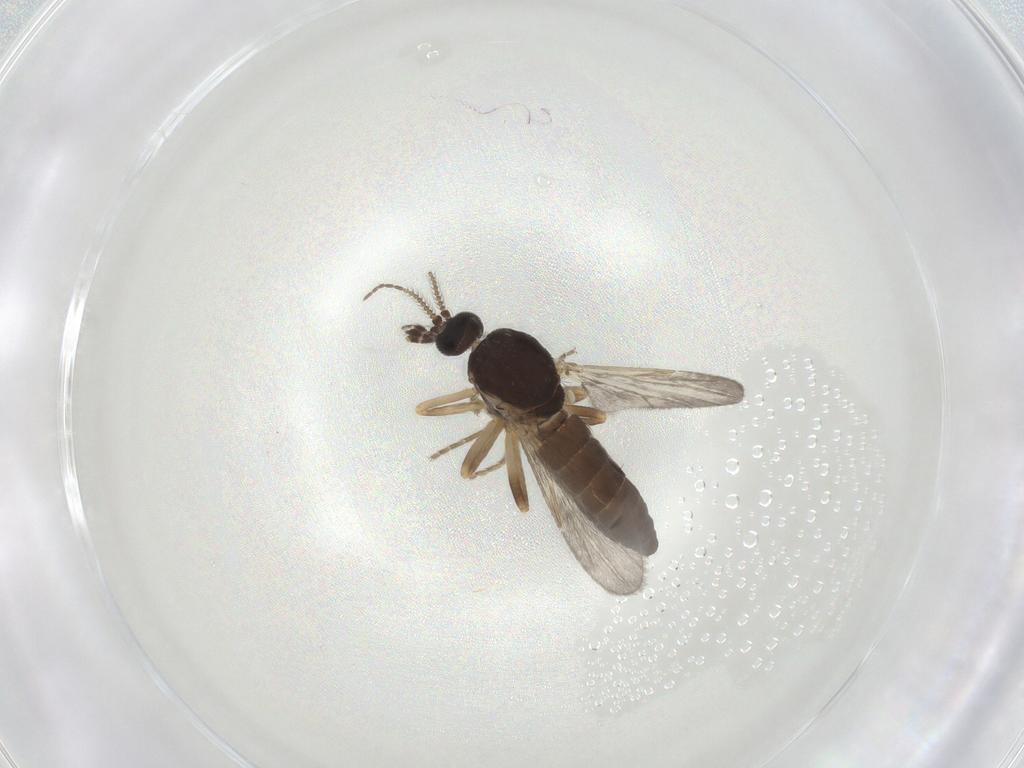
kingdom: Animalia
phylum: Arthropoda
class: Insecta
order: Diptera
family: Ceratopogonidae
